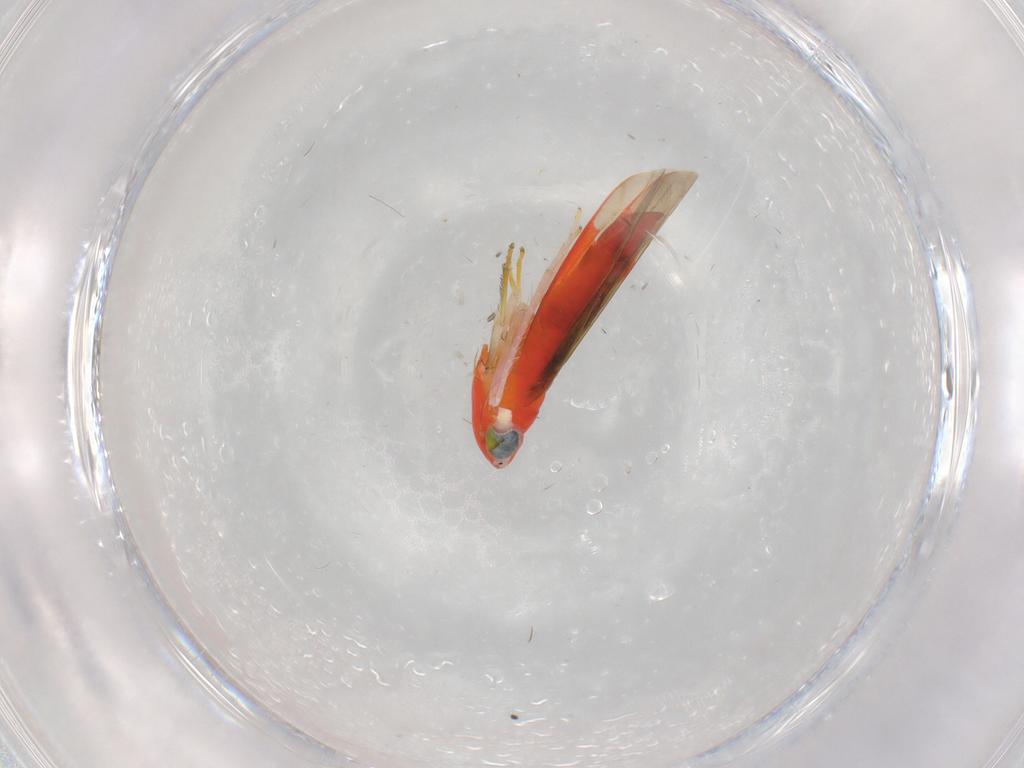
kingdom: Animalia
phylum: Arthropoda
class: Insecta
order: Hemiptera
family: Cicadellidae
